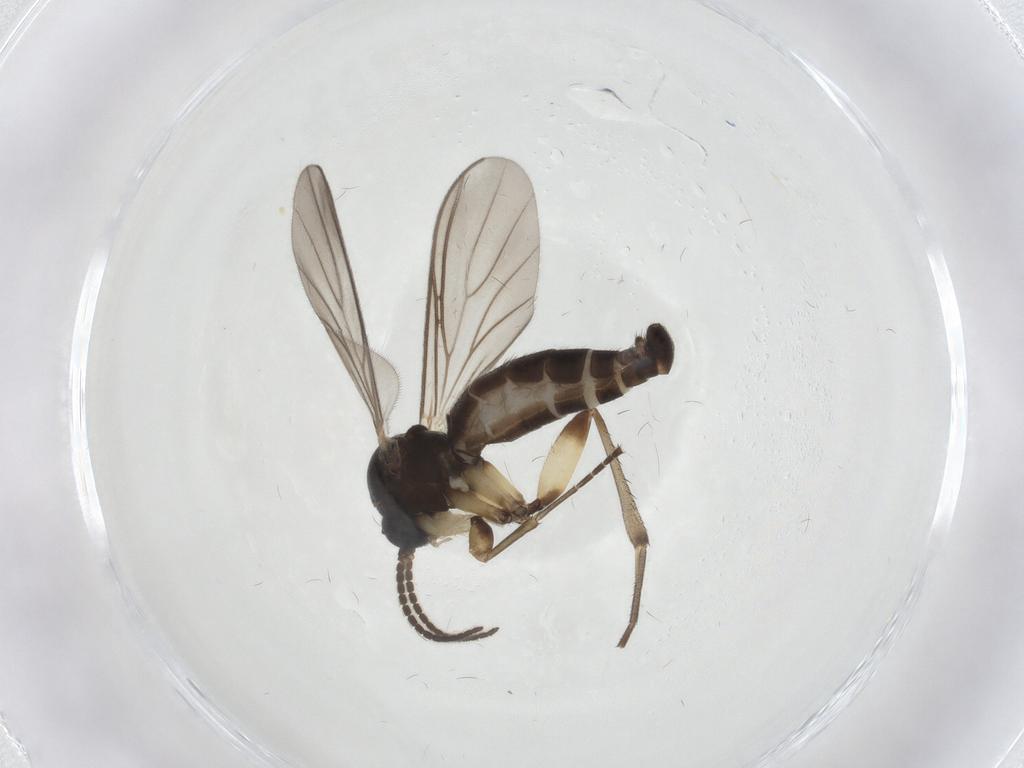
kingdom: Animalia
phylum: Arthropoda
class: Insecta
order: Diptera
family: Mycetophilidae
